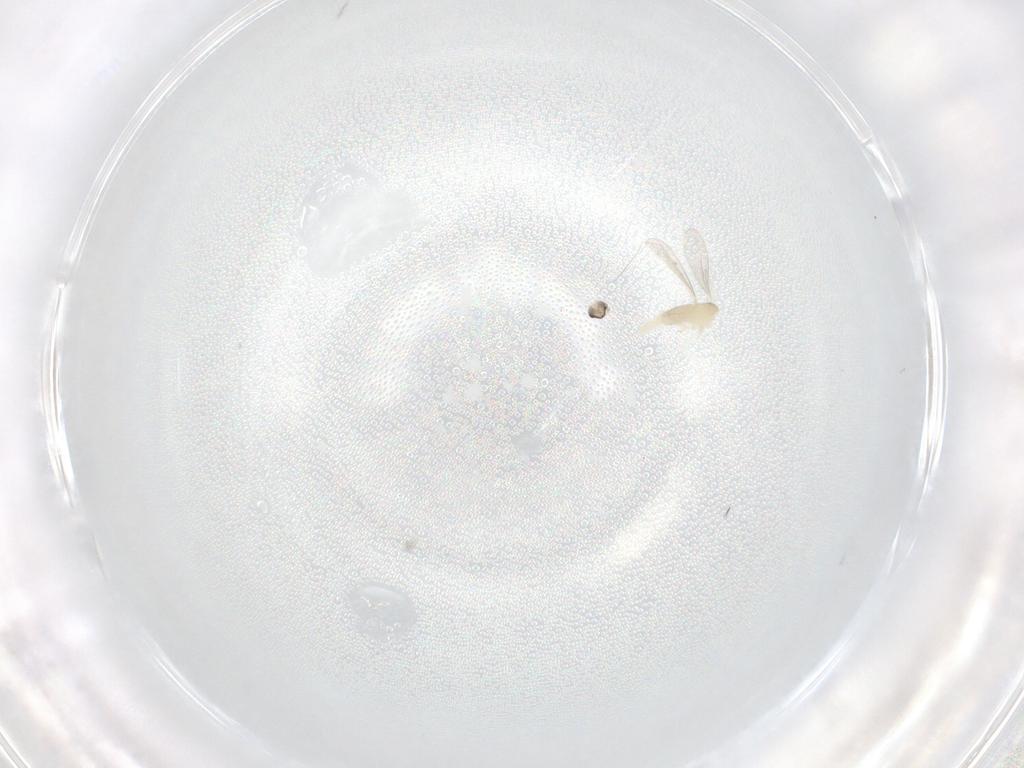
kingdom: Animalia
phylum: Arthropoda
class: Insecta
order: Diptera
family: Cecidomyiidae
